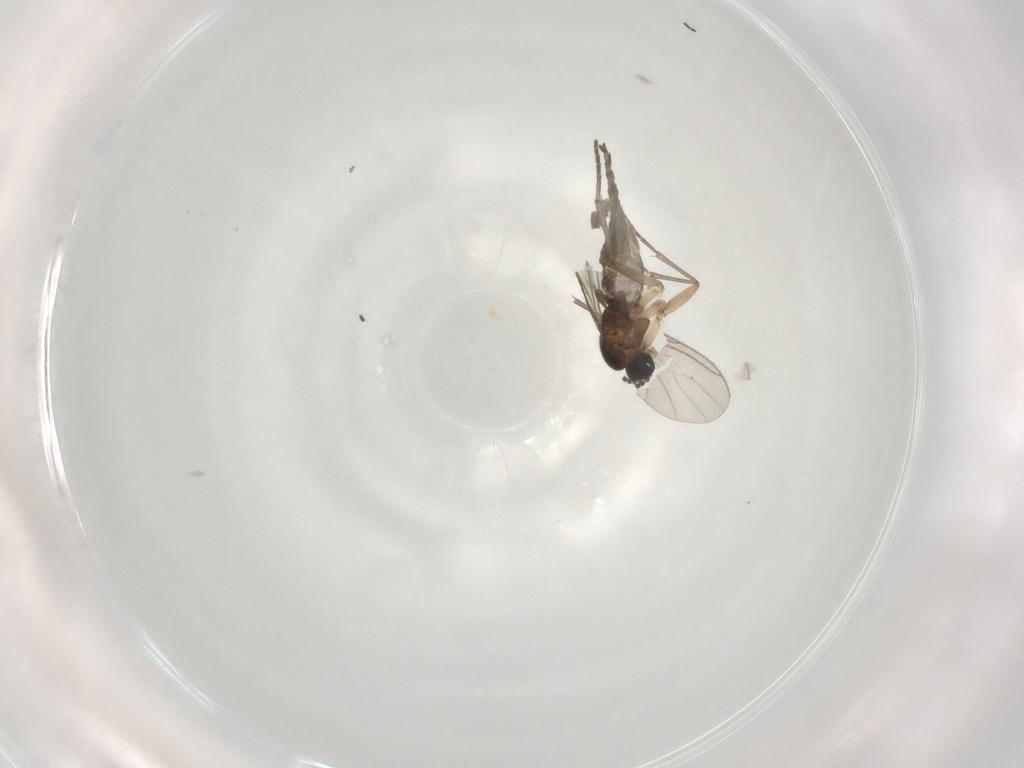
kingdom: Animalia
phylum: Arthropoda
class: Insecta
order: Diptera
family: Sciaridae
